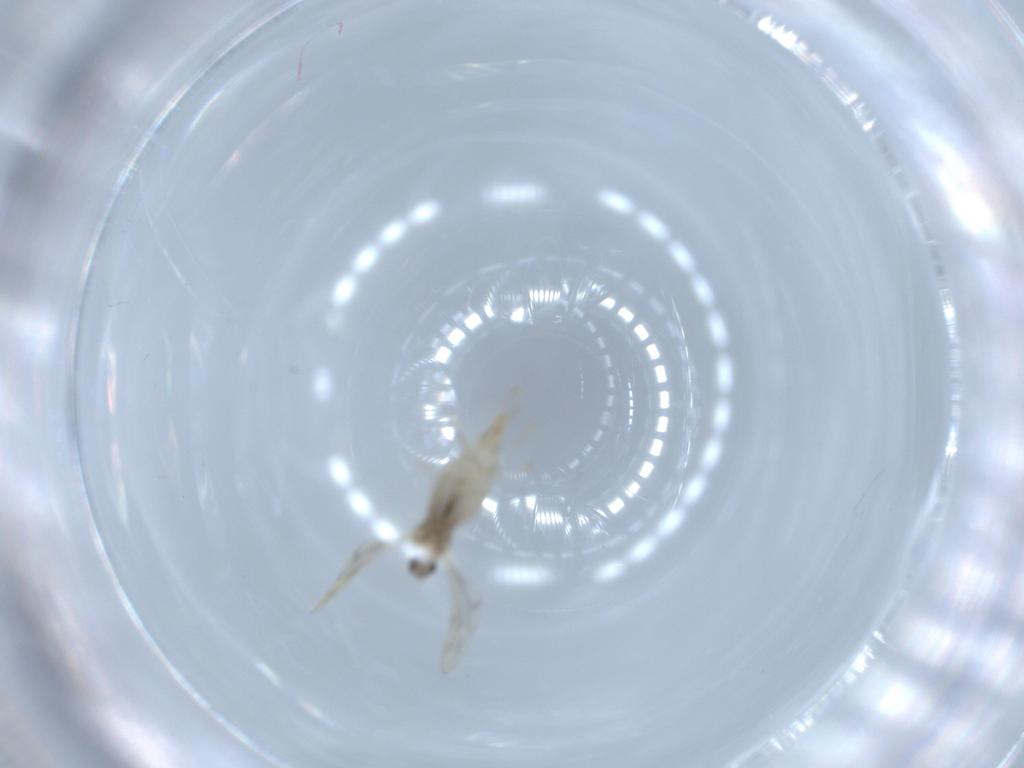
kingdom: Animalia
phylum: Arthropoda
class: Insecta
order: Diptera
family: Cecidomyiidae
